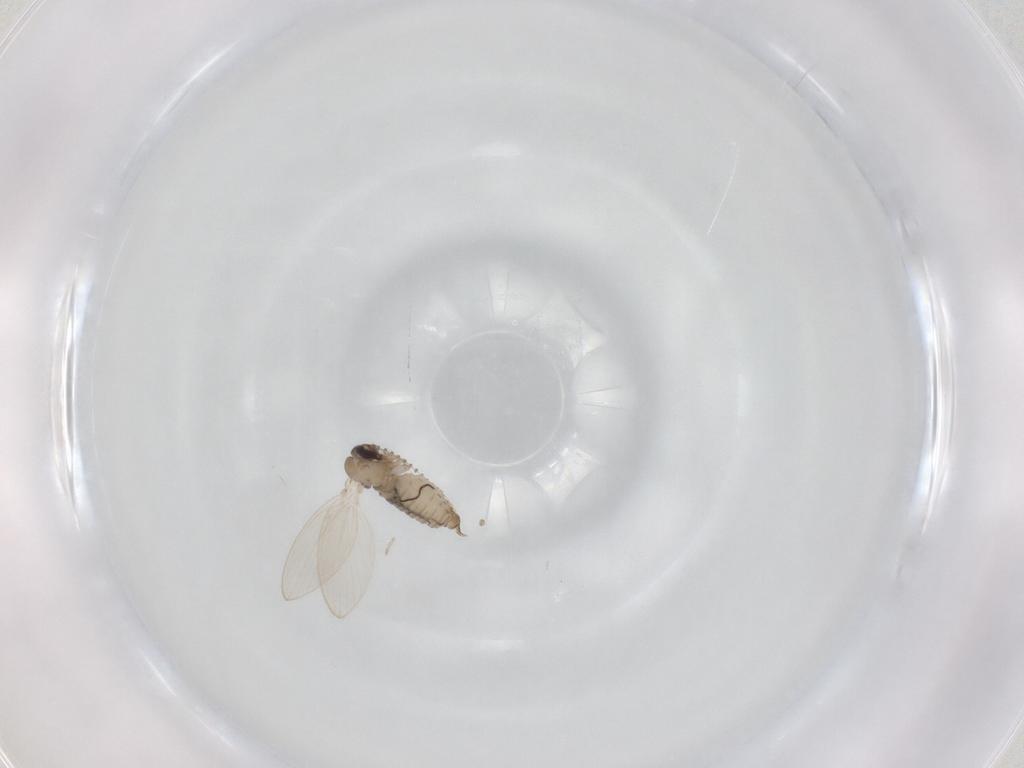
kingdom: Animalia
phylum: Arthropoda
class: Insecta
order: Diptera
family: Psychodidae
